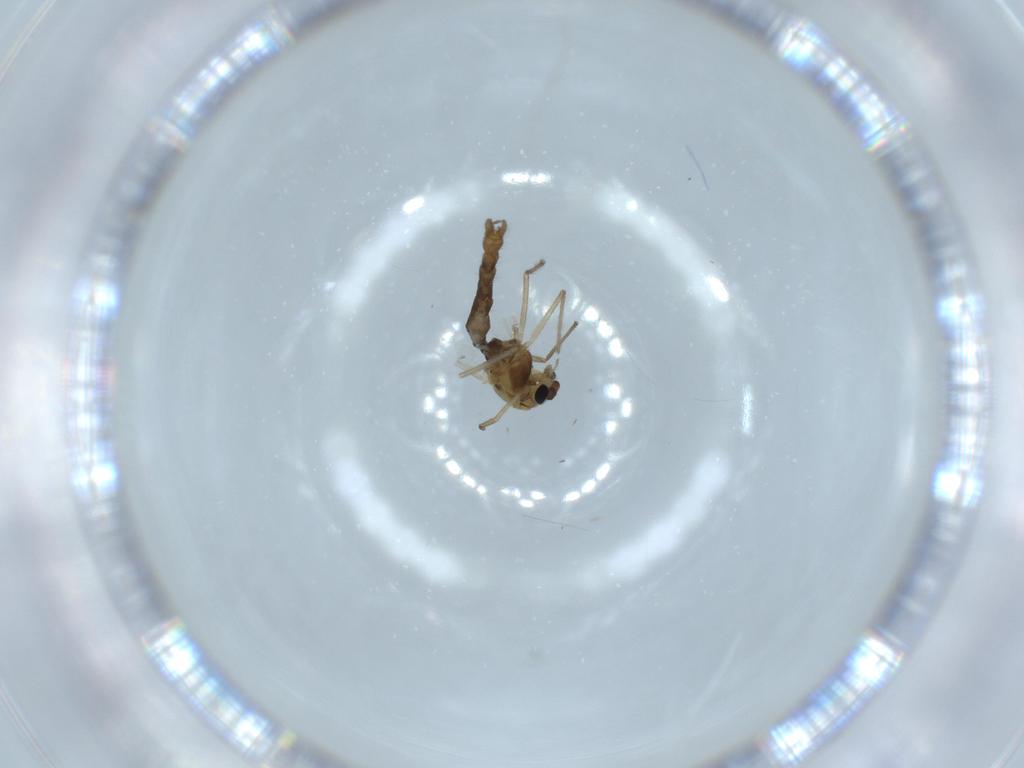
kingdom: Animalia
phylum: Arthropoda
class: Insecta
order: Diptera
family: Chironomidae
